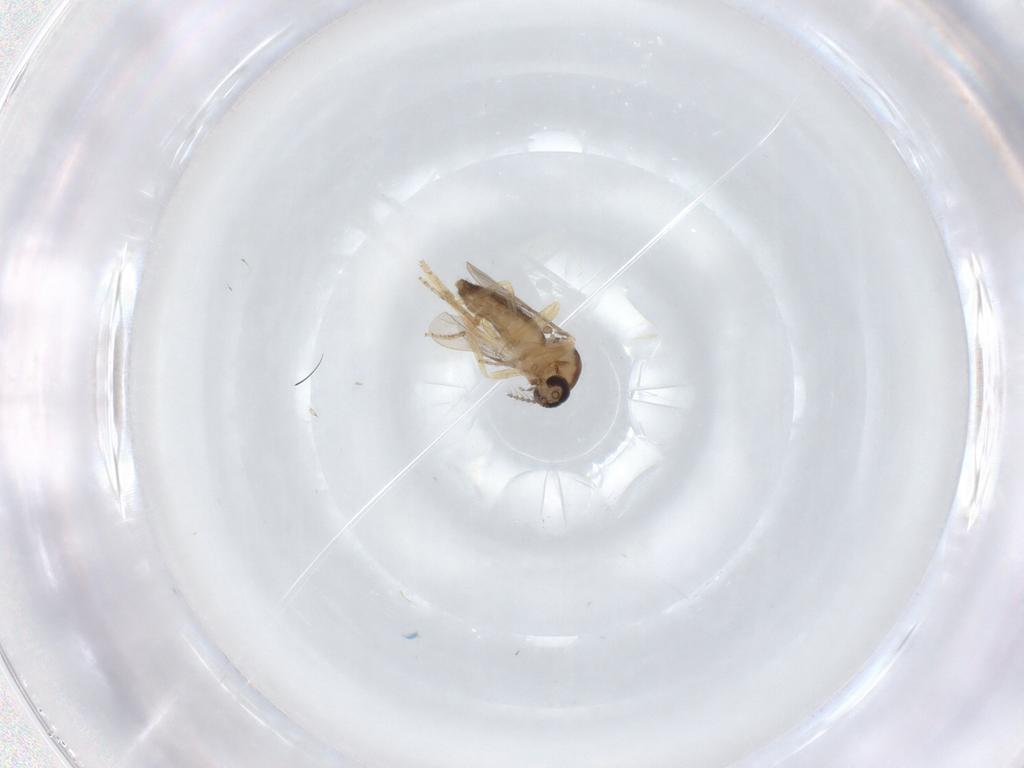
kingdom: Animalia
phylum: Arthropoda
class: Insecta
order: Diptera
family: Ceratopogonidae
